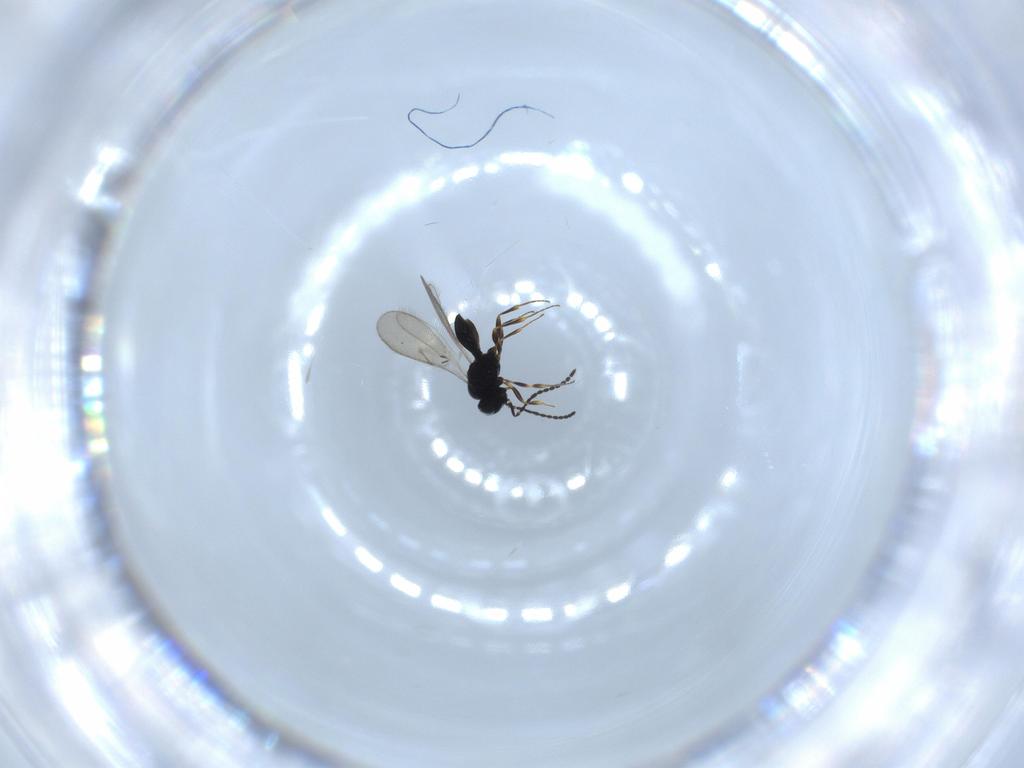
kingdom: Animalia
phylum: Arthropoda
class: Insecta
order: Hymenoptera
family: Scelionidae
